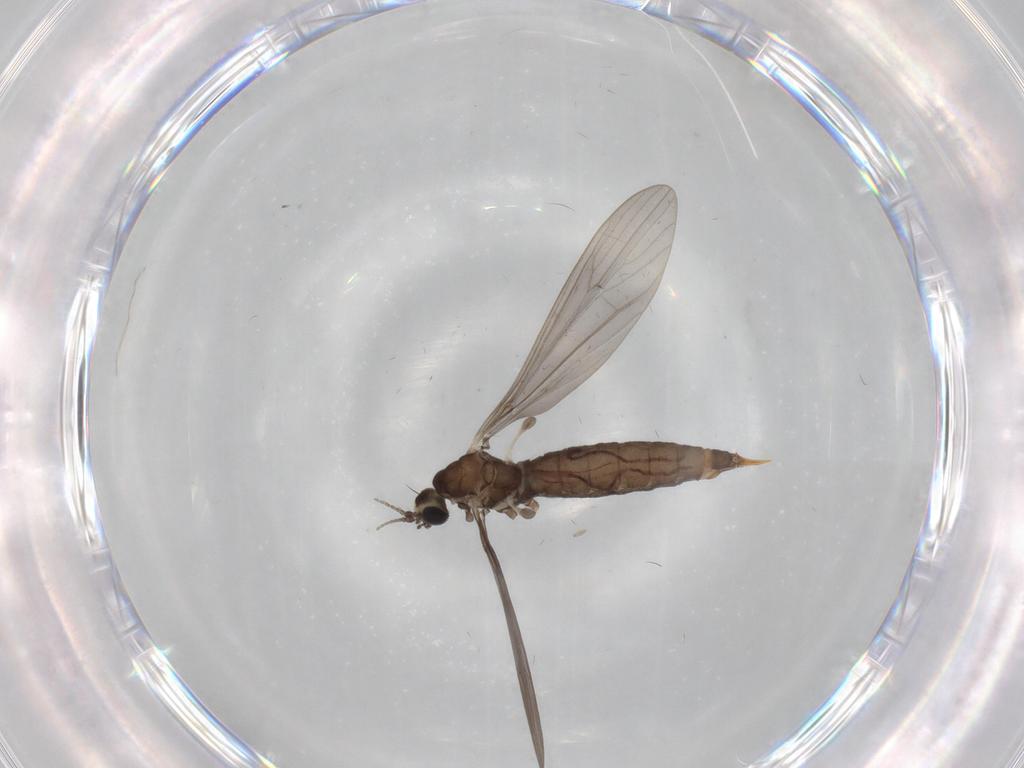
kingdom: Animalia
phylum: Arthropoda
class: Insecta
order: Diptera
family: Limoniidae
